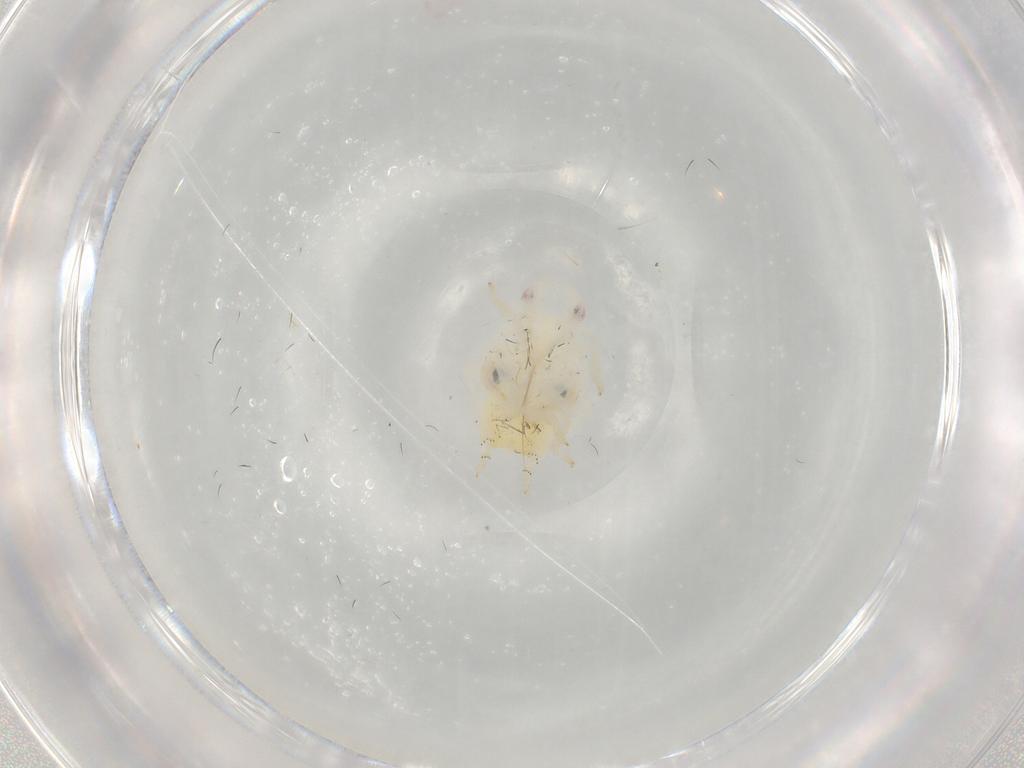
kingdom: Animalia
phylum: Arthropoda
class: Insecta
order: Hemiptera
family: Flatidae
